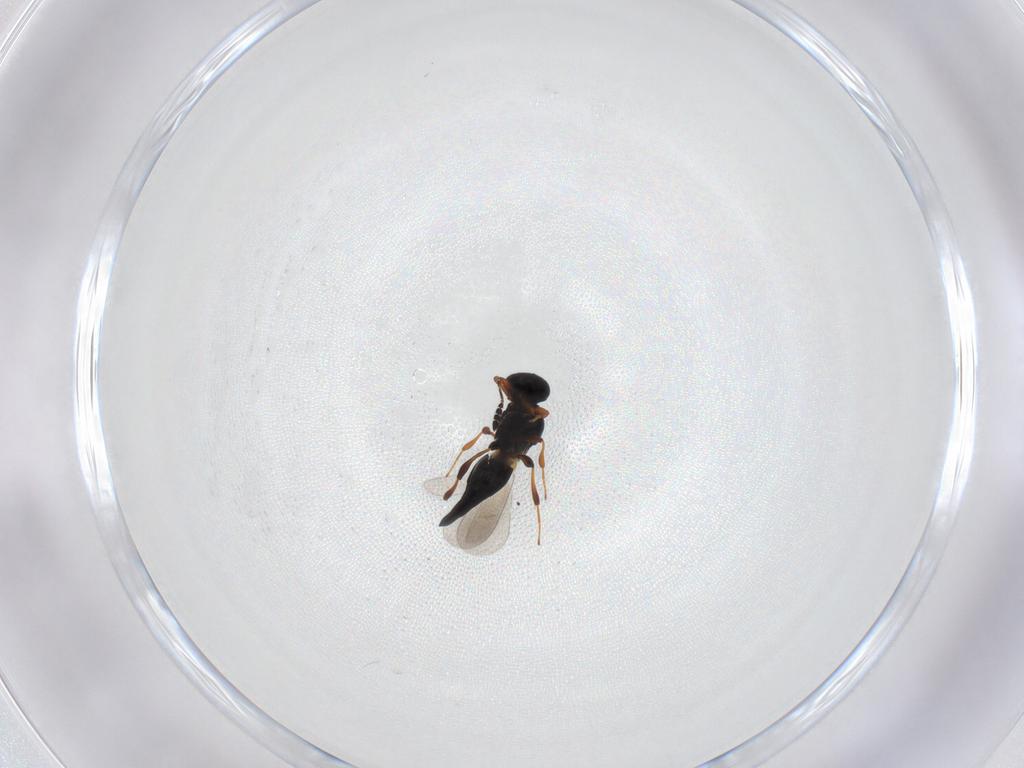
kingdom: Animalia
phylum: Arthropoda
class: Insecta
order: Hymenoptera
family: Platygastridae
